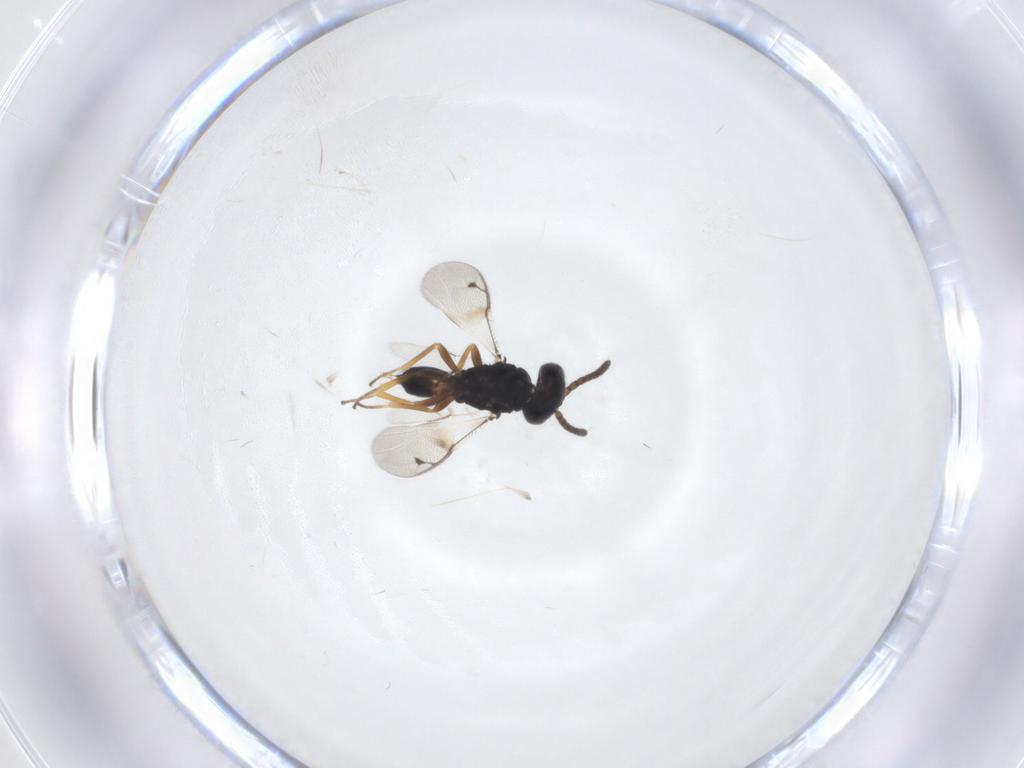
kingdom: Animalia
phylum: Arthropoda
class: Insecta
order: Hymenoptera
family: Pteromalidae
